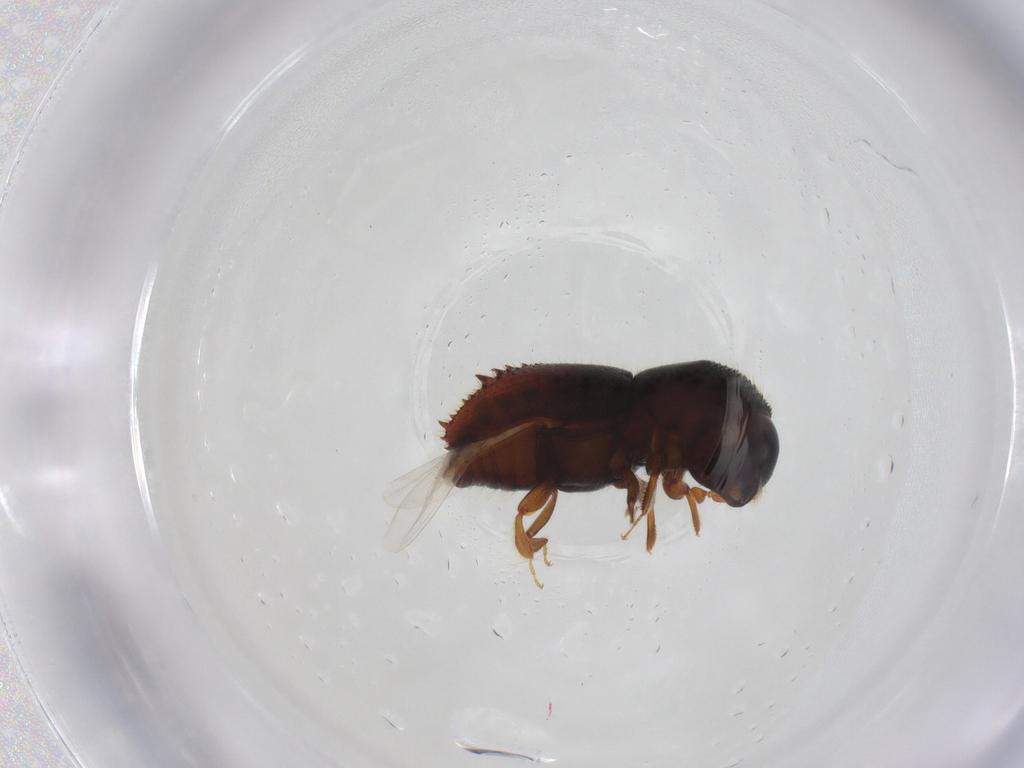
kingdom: Animalia
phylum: Arthropoda
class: Insecta
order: Coleoptera
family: Curculionidae
